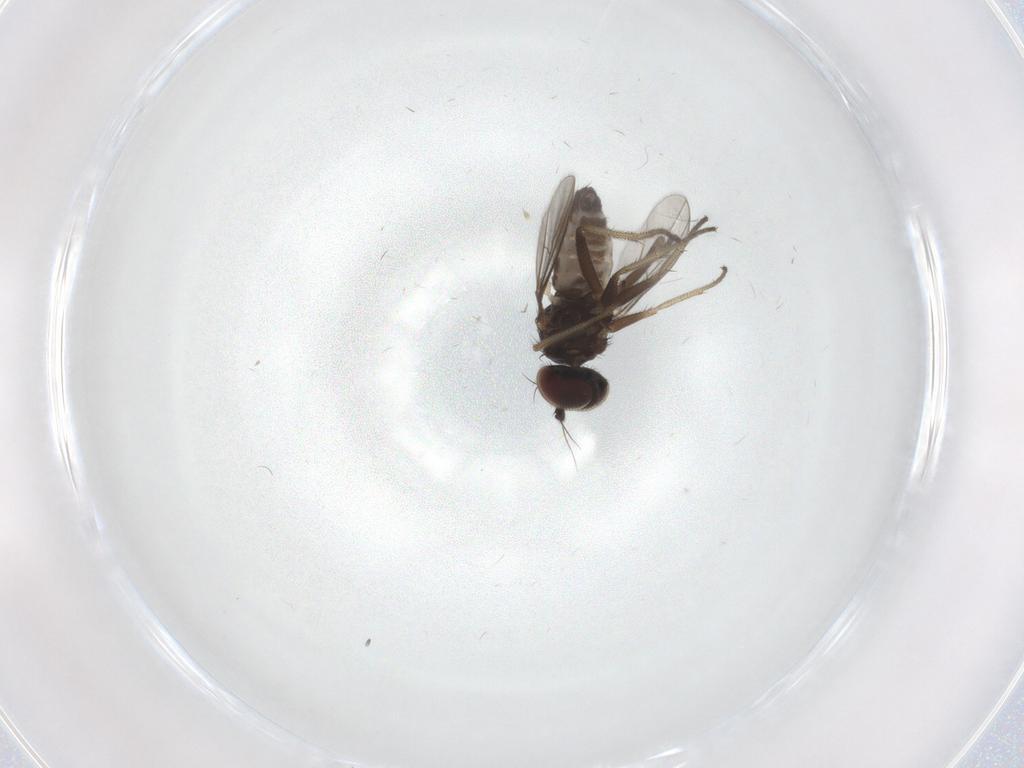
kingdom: Animalia
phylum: Arthropoda
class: Insecta
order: Diptera
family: Dolichopodidae
